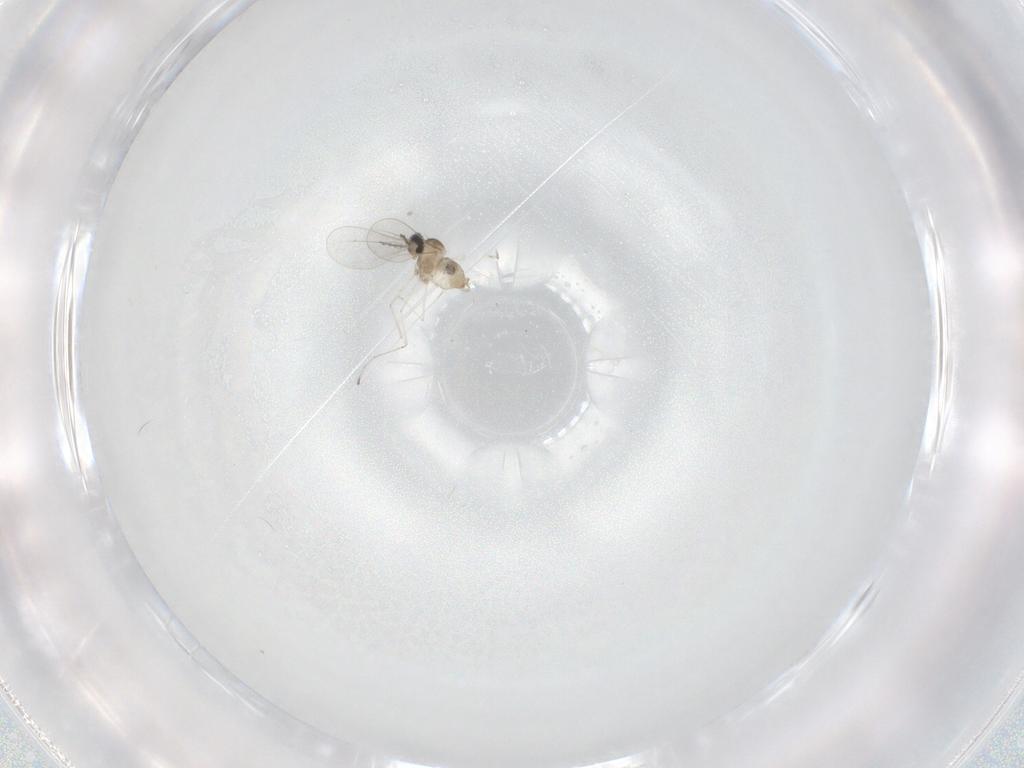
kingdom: Animalia
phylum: Arthropoda
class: Insecta
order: Diptera
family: Cecidomyiidae
